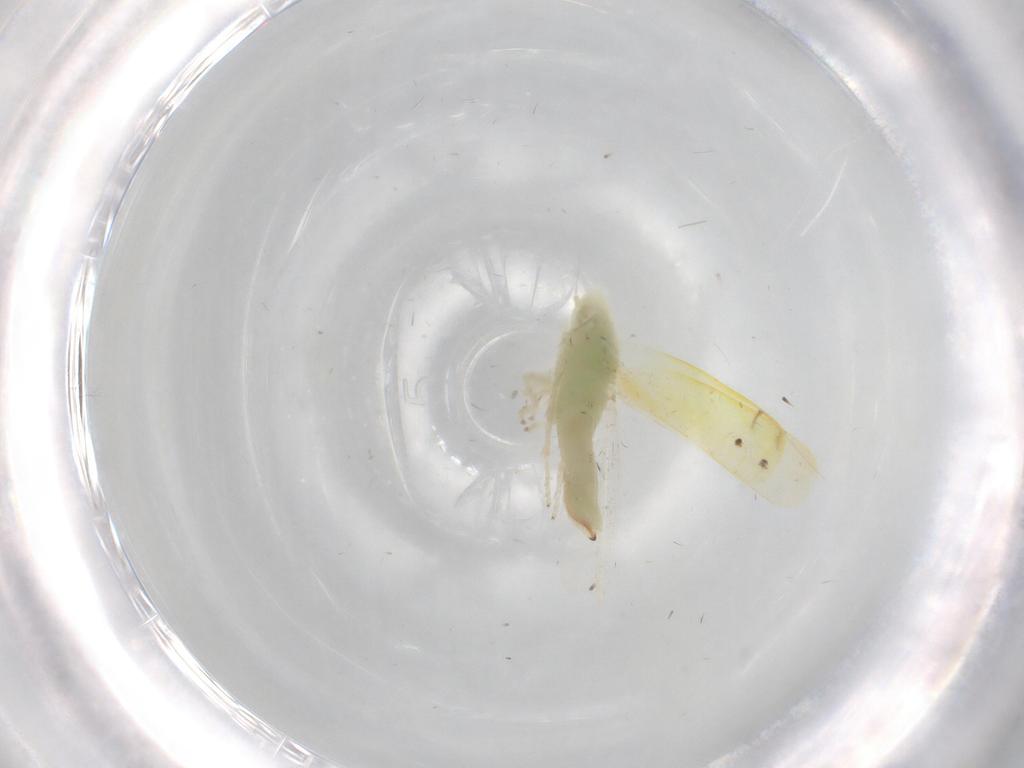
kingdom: Animalia
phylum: Arthropoda
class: Insecta
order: Hemiptera
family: Cicadellidae
